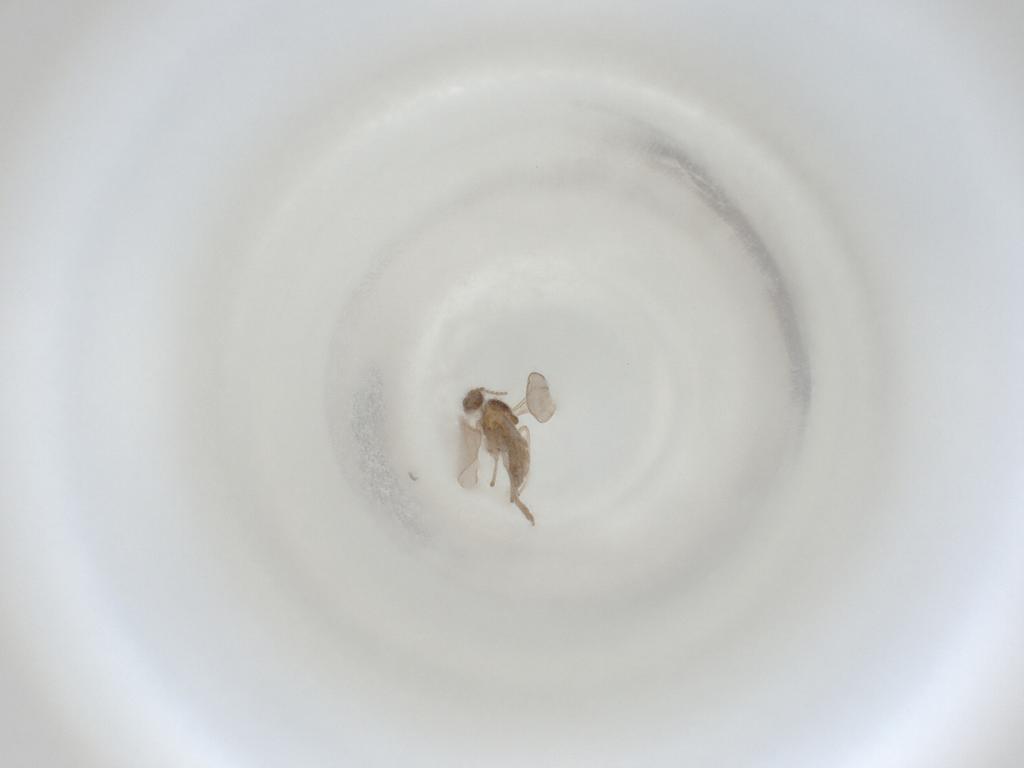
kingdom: Animalia
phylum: Arthropoda
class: Insecta
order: Diptera
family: Cecidomyiidae
